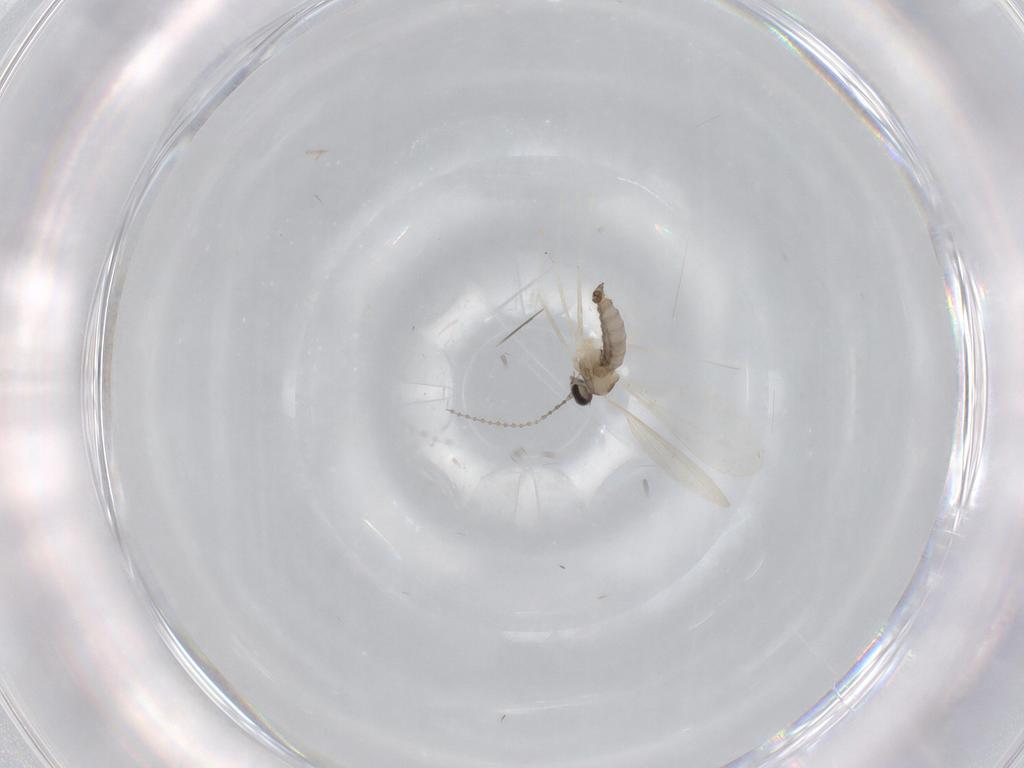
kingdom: Animalia
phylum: Arthropoda
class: Insecta
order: Diptera
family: Cecidomyiidae
